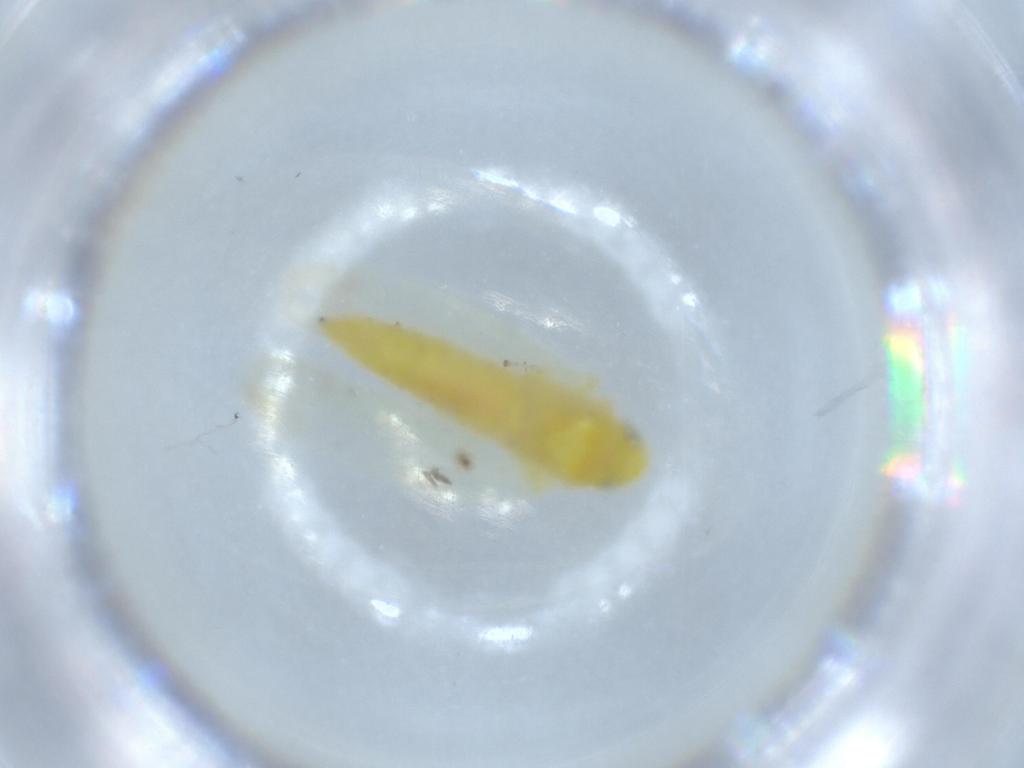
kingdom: Animalia
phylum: Arthropoda
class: Insecta
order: Hemiptera
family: Cicadellidae
